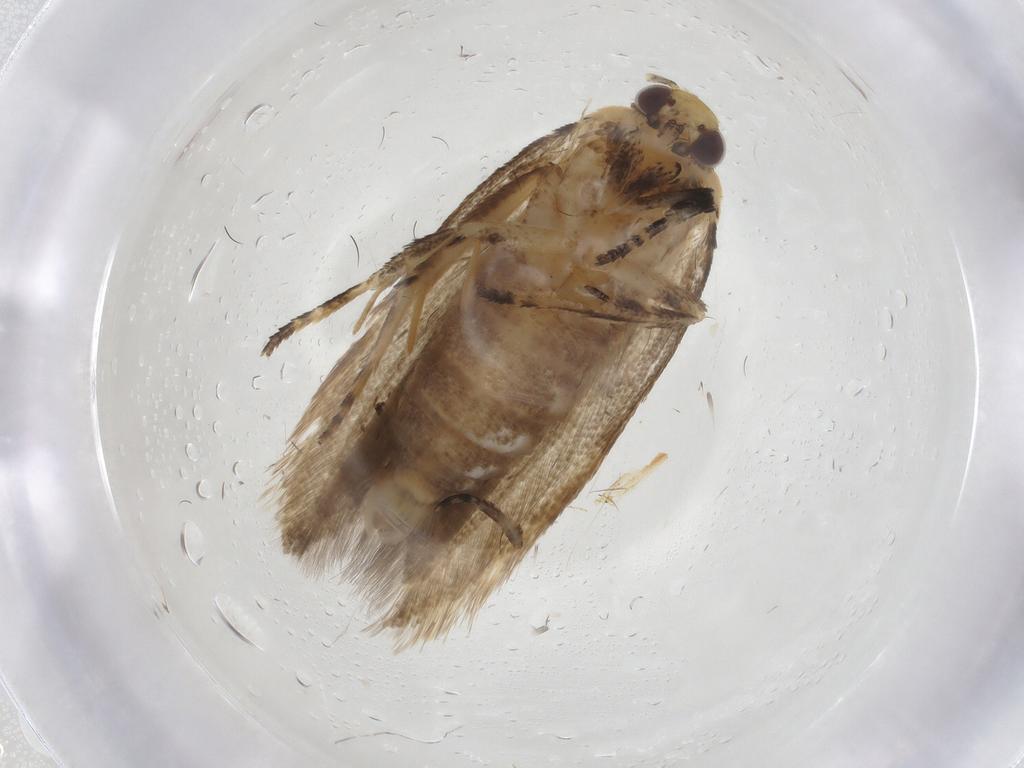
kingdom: Animalia
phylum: Arthropoda
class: Insecta
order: Lepidoptera
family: Gelechiidae
